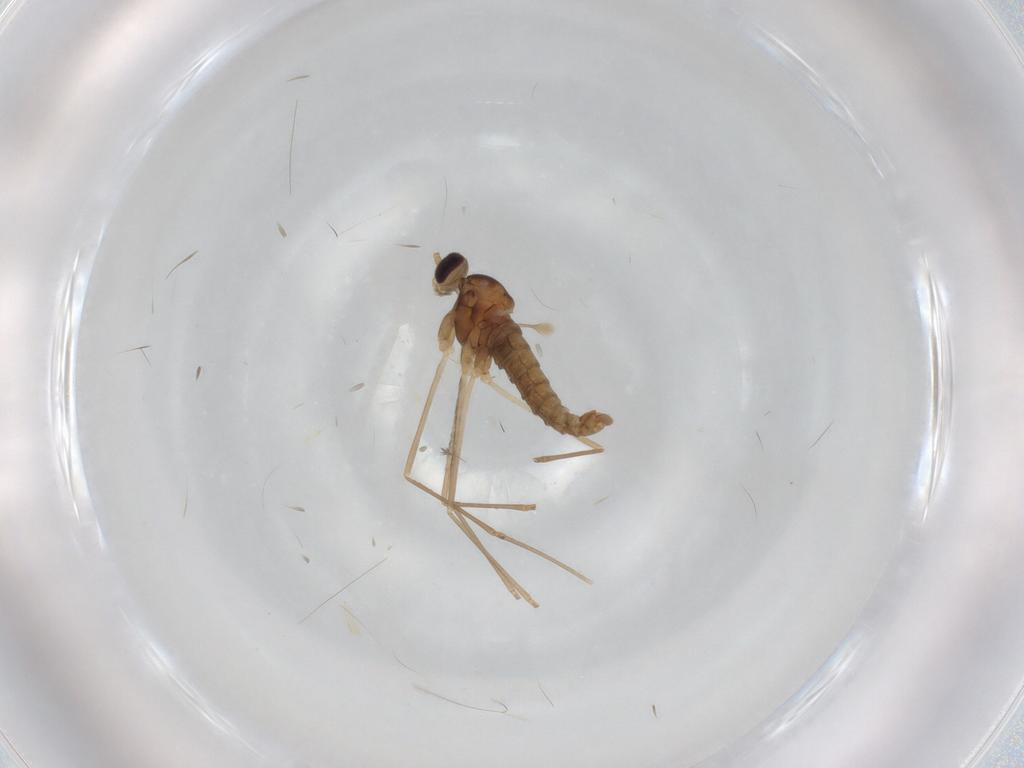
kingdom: Animalia
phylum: Arthropoda
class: Insecta
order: Diptera
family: Cecidomyiidae
